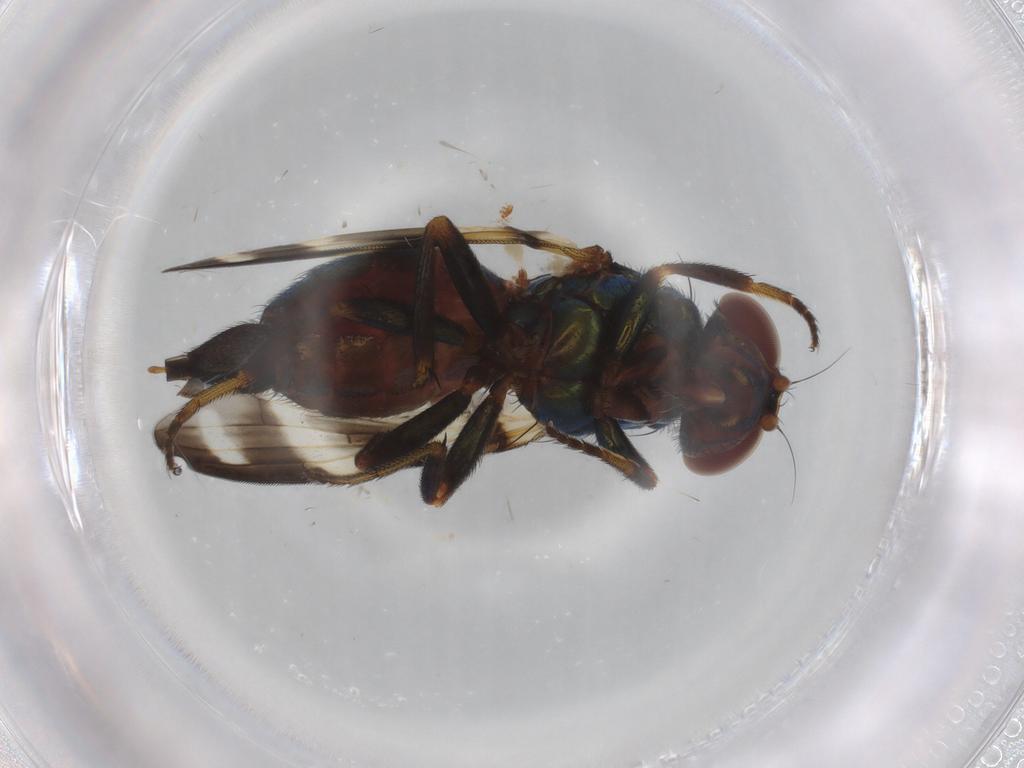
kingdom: Animalia
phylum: Arthropoda
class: Insecta
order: Diptera
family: Ulidiidae
